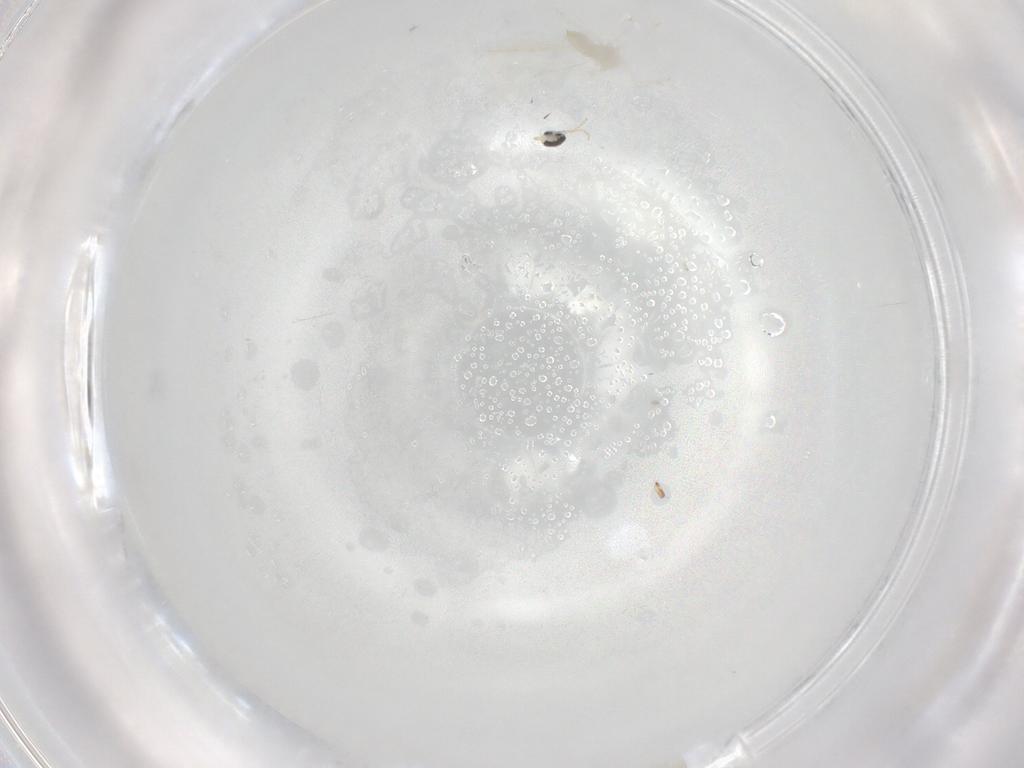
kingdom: Animalia
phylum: Arthropoda
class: Insecta
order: Diptera
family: Cecidomyiidae
